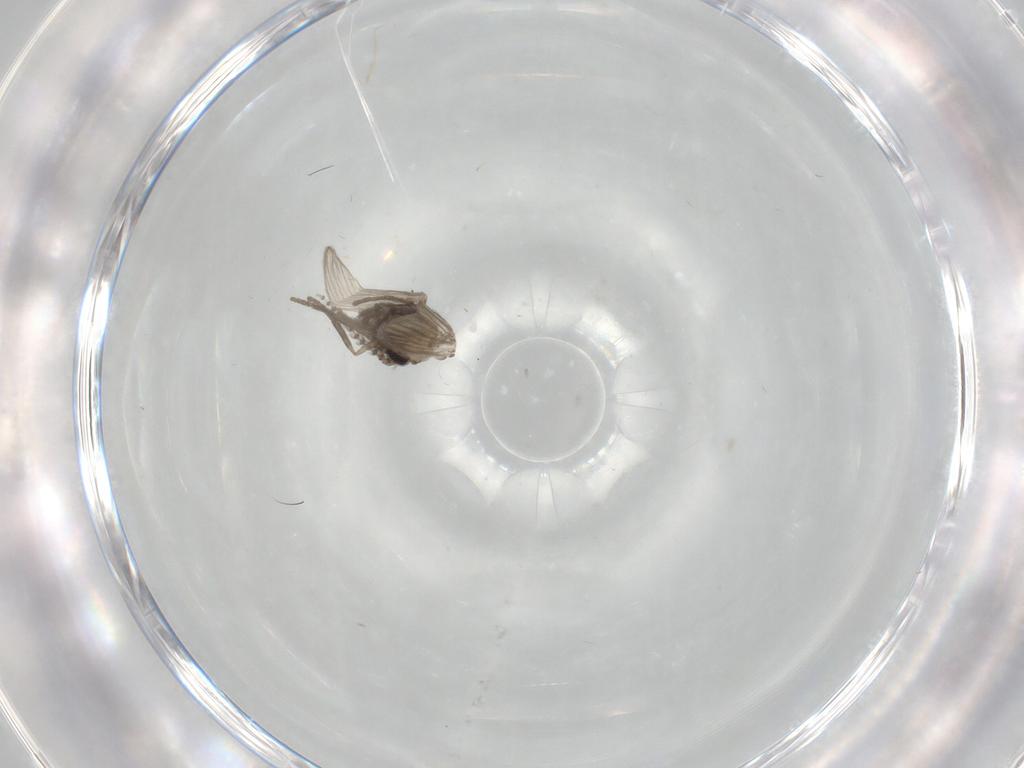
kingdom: Animalia
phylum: Arthropoda
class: Insecta
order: Diptera
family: Psychodidae
